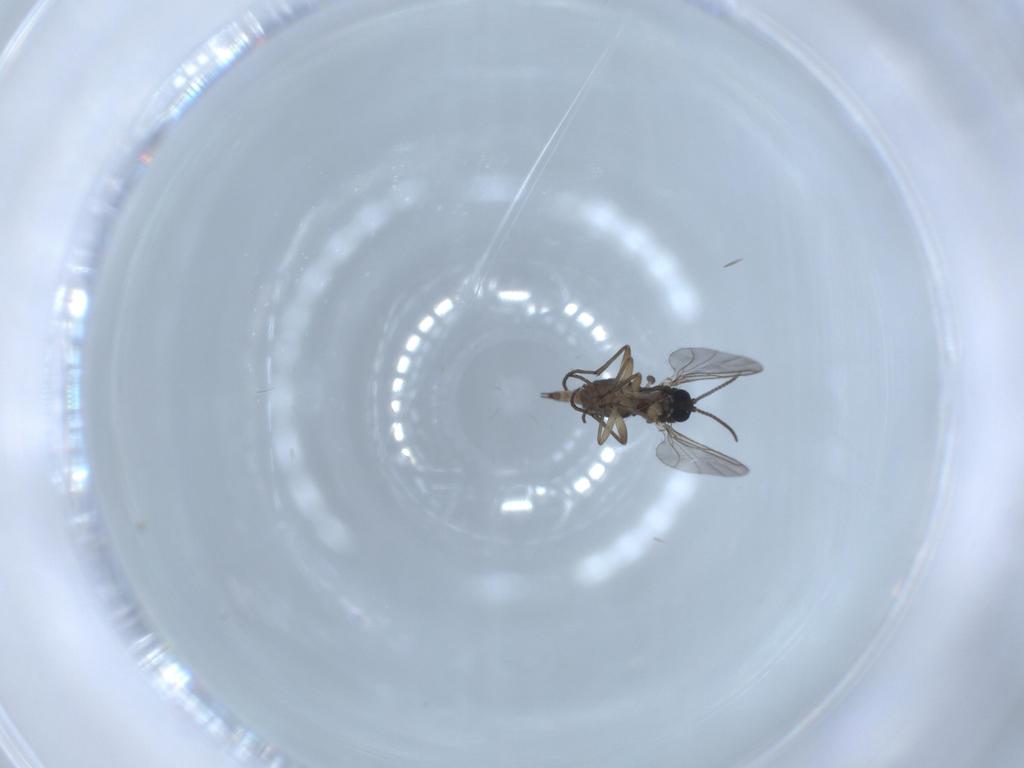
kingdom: Animalia
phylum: Arthropoda
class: Insecta
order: Diptera
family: Sciaridae
